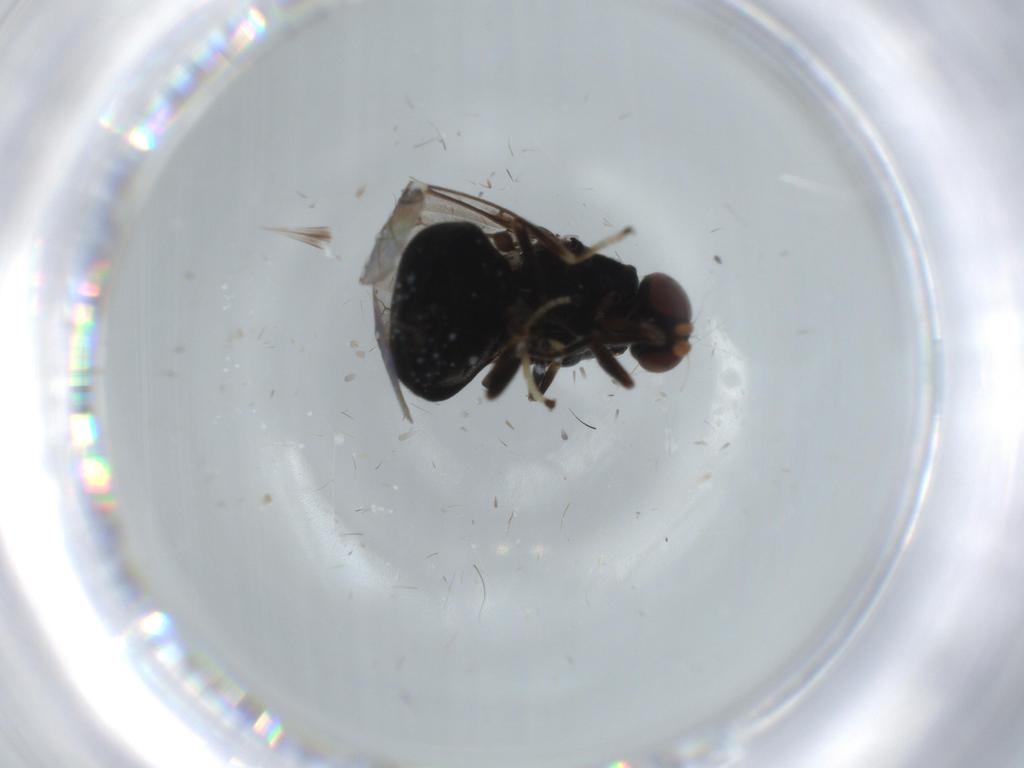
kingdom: Animalia
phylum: Arthropoda
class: Insecta
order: Diptera
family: Stratiomyidae
